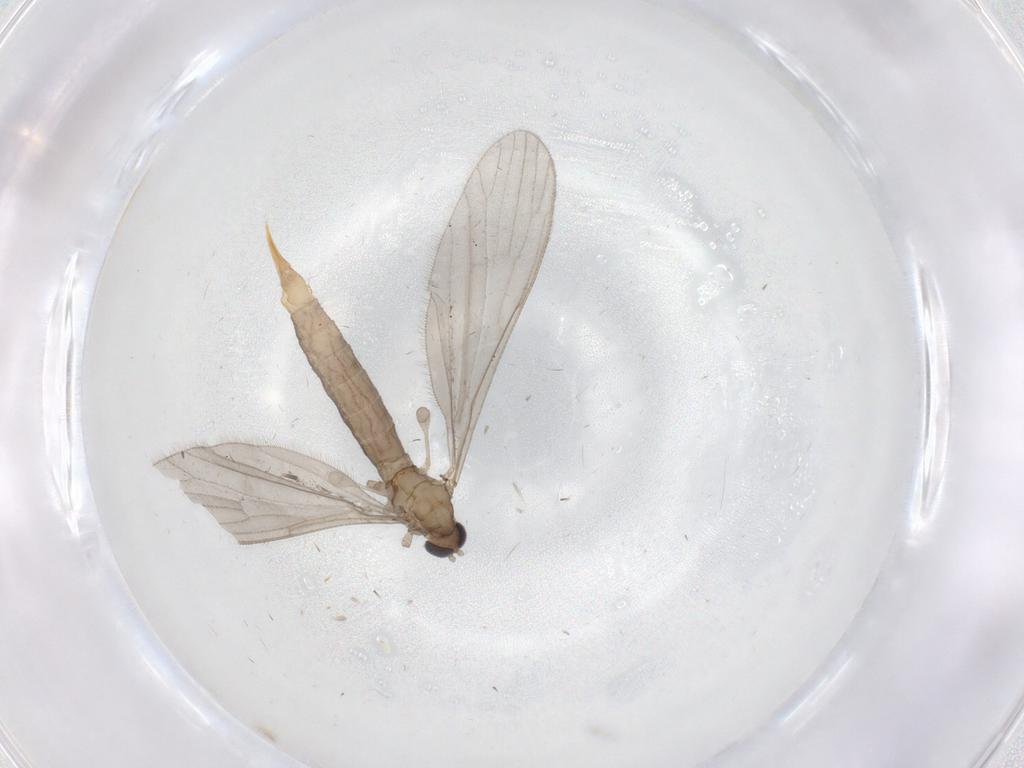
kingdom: Animalia
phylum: Arthropoda
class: Insecta
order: Diptera
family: Limoniidae
